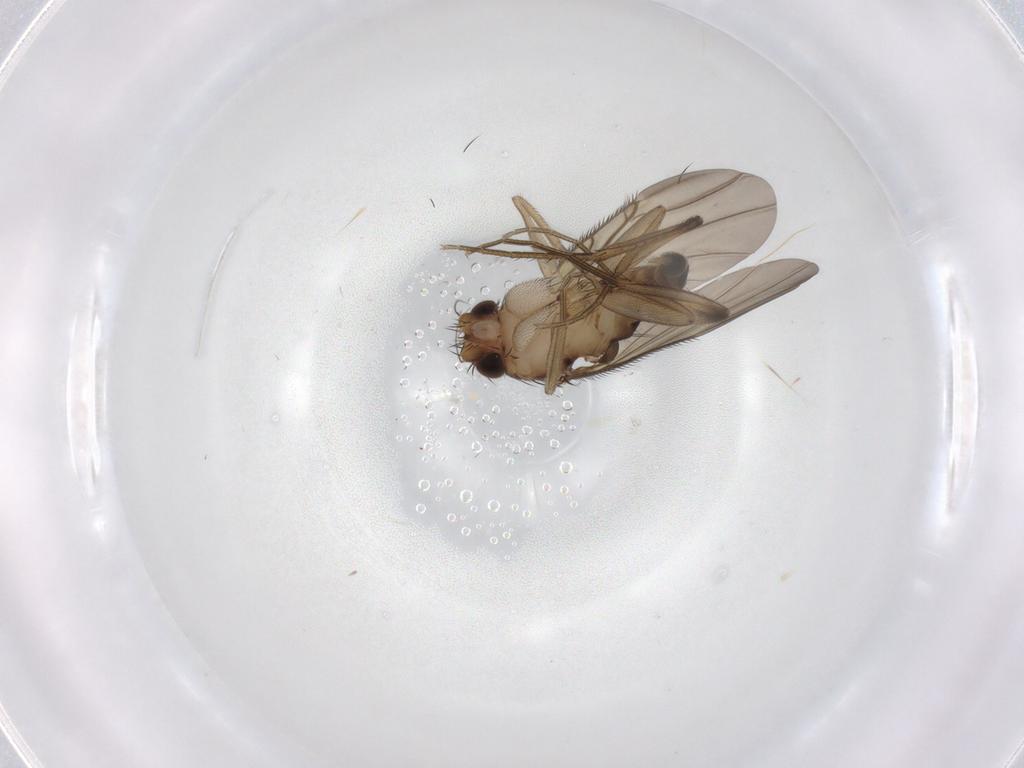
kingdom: Animalia
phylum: Arthropoda
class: Insecta
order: Diptera
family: Phoridae
